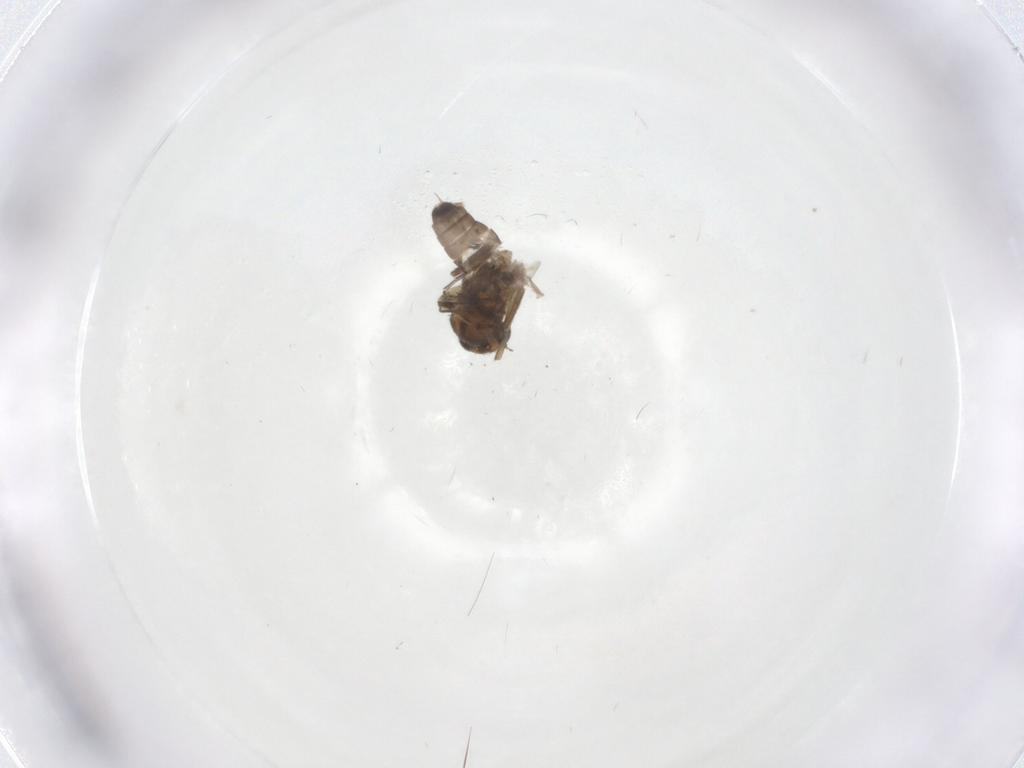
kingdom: Animalia
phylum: Arthropoda
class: Insecta
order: Diptera
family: Phoridae
